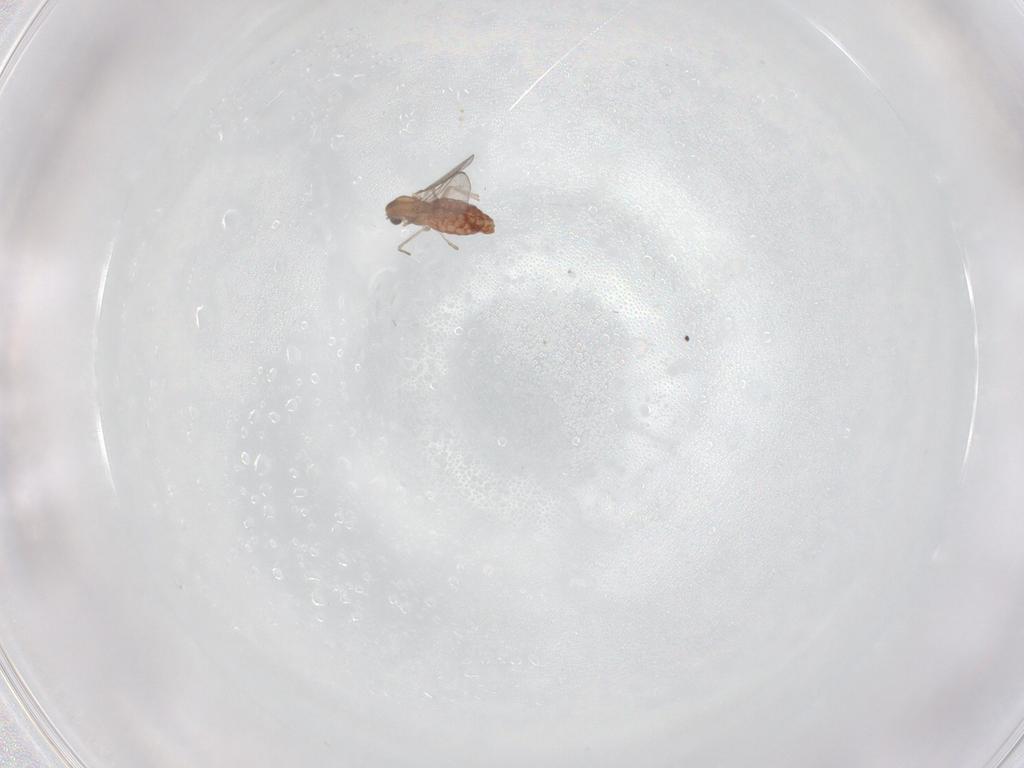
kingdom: Animalia
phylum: Arthropoda
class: Insecta
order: Diptera
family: Chironomidae
